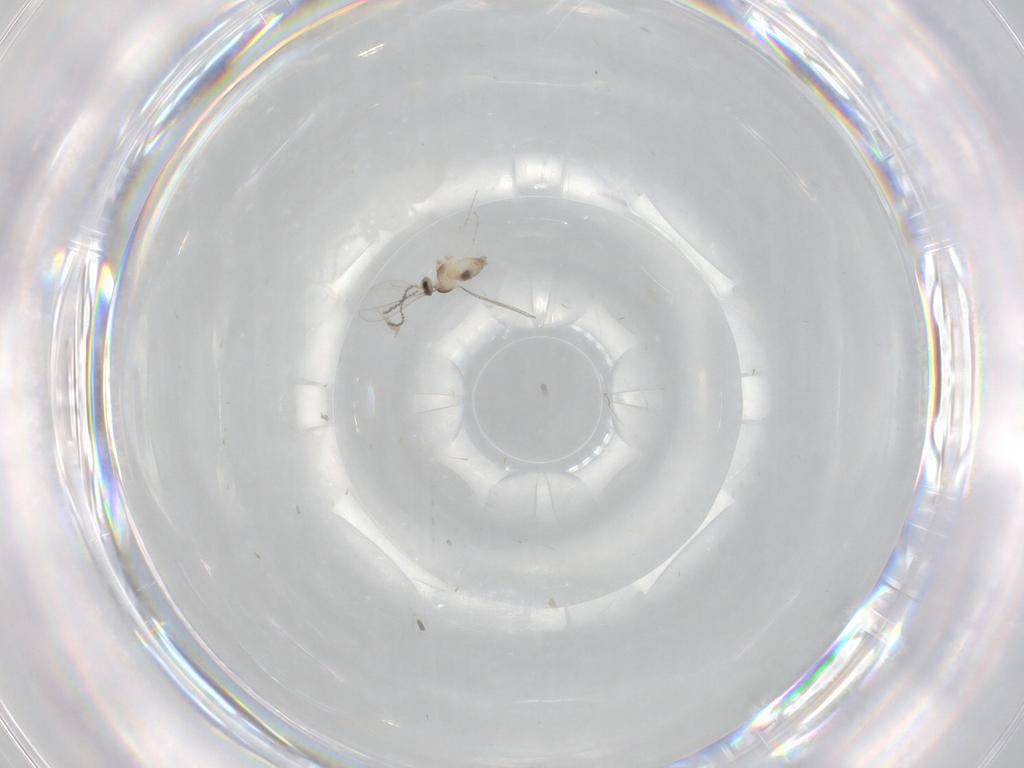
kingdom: Animalia
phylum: Arthropoda
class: Insecta
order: Diptera
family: Cecidomyiidae
